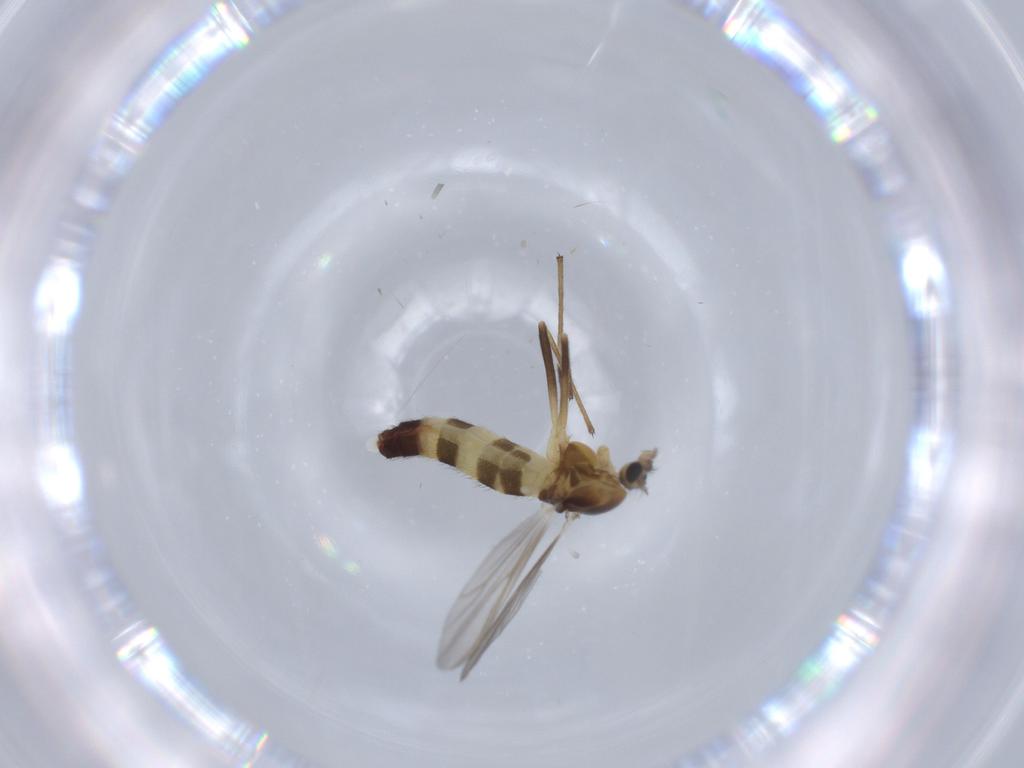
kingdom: Animalia
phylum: Arthropoda
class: Insecta
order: Diptera
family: Chironomidae
